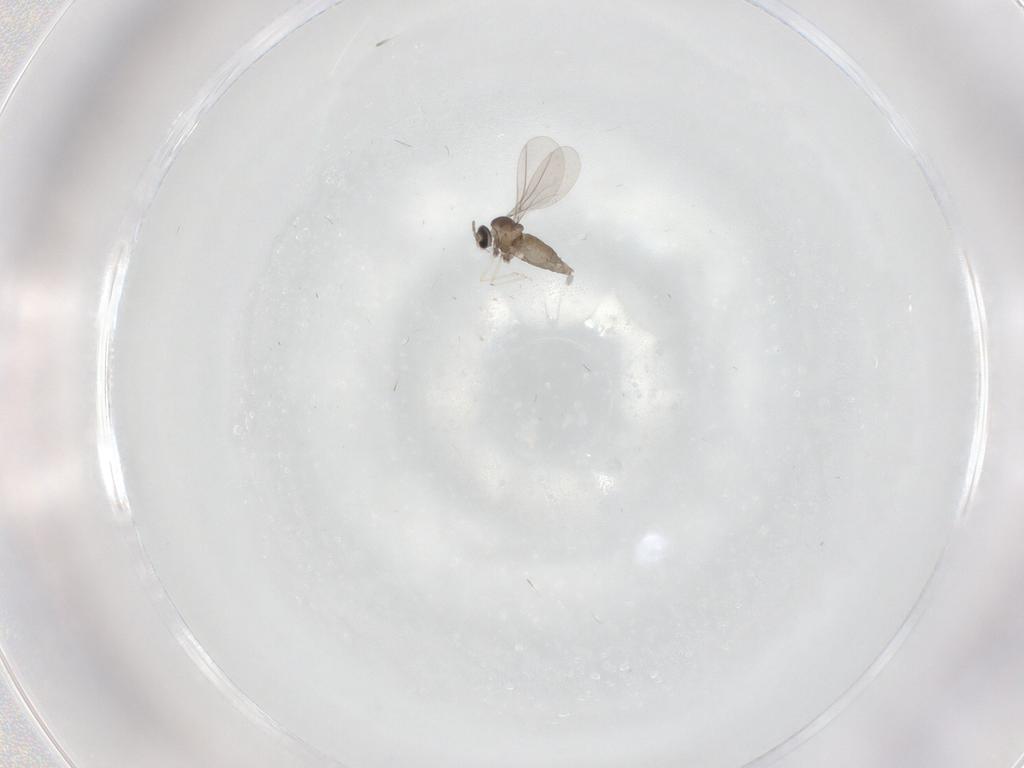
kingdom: Animalia
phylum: Arthropoda
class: Insecta
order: Diptera
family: Cecidomyiidae
